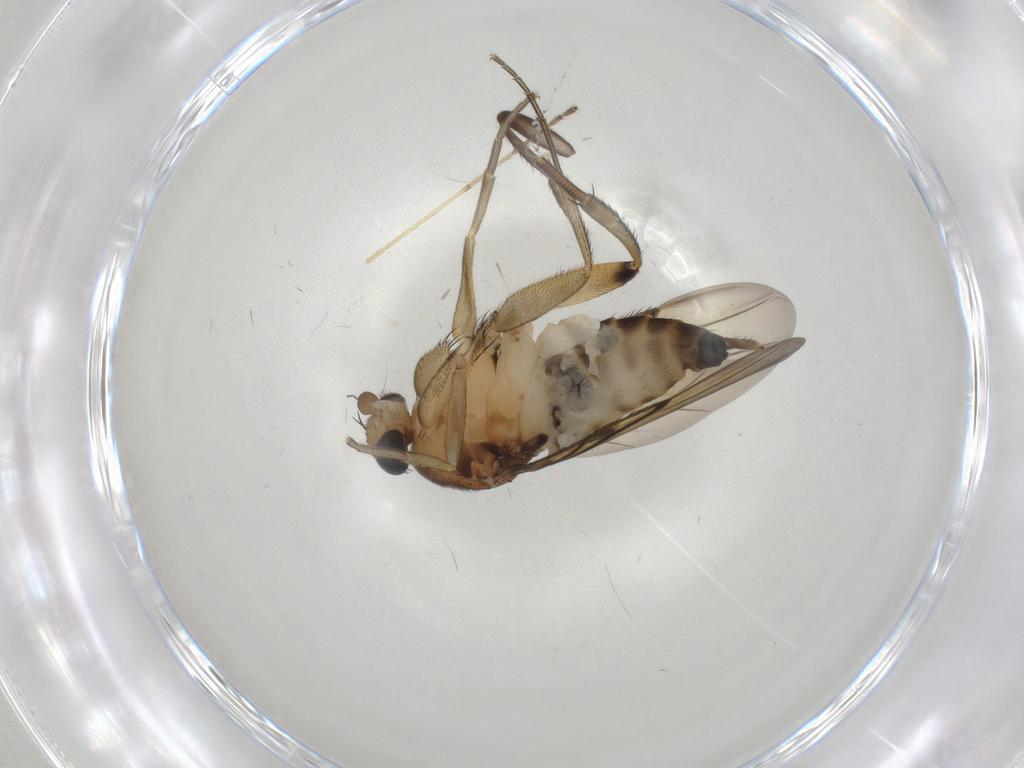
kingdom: Animalia
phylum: Arthropoda
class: Insecta
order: Diptera
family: Phoridae
